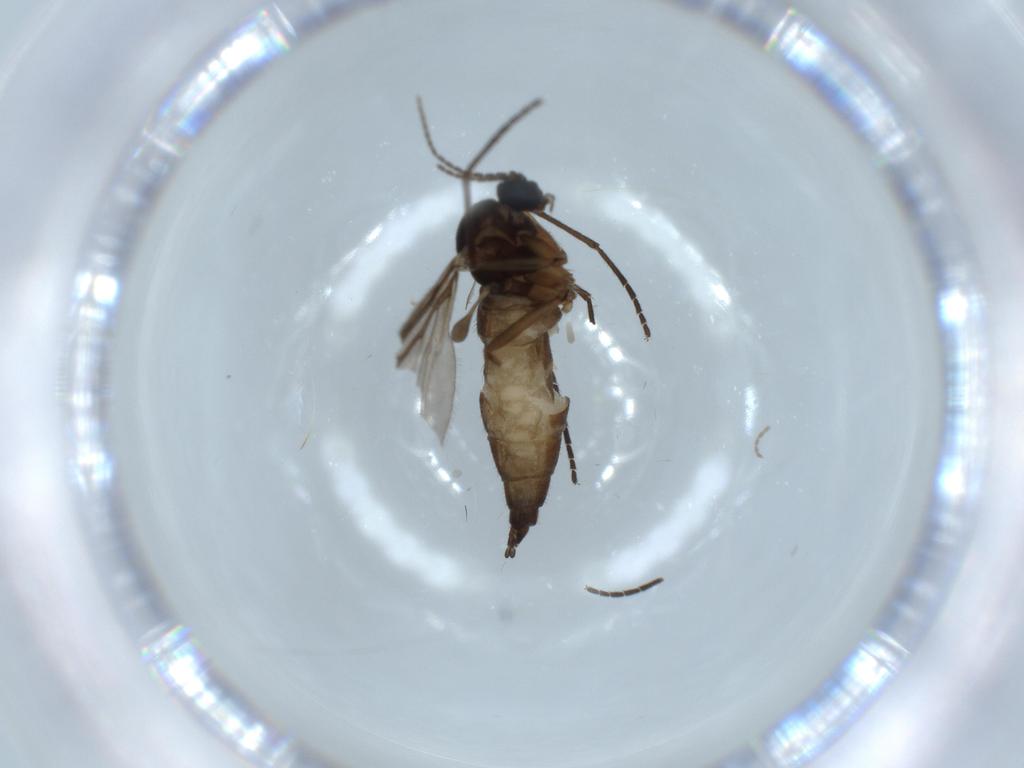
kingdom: Animalia
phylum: Arthropoda
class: Insecta
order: Diptera
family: Sciaridae
